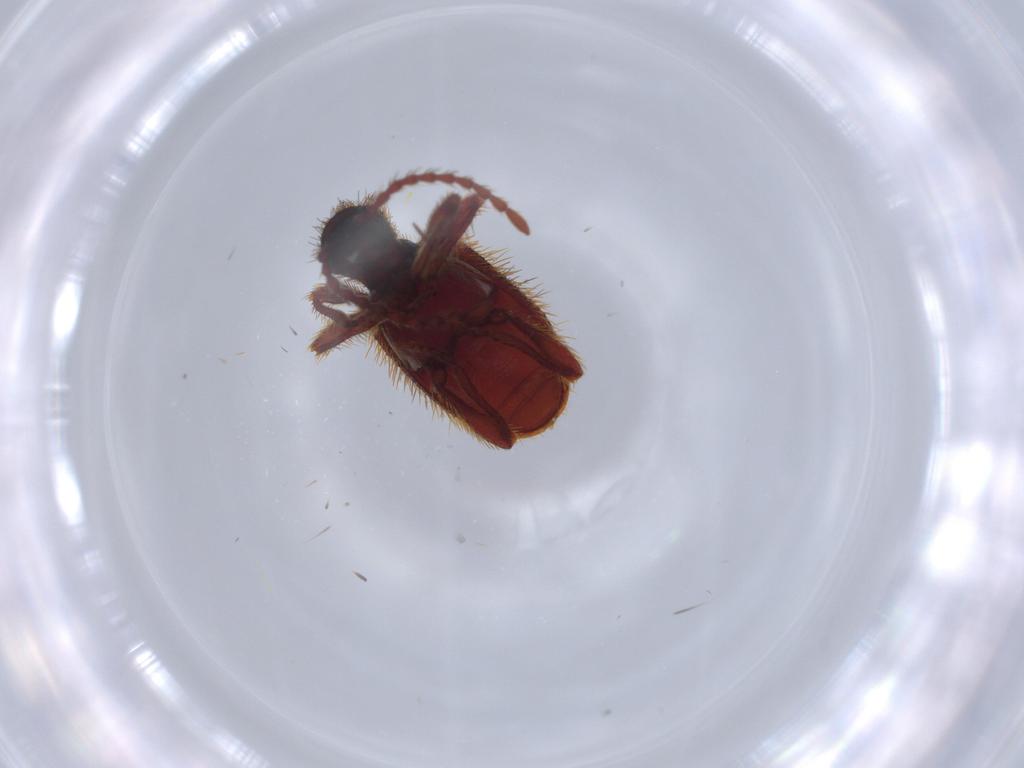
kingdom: Animalia
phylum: Arthropoda
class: Insecta
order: Coleoptera
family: Ptinidae
